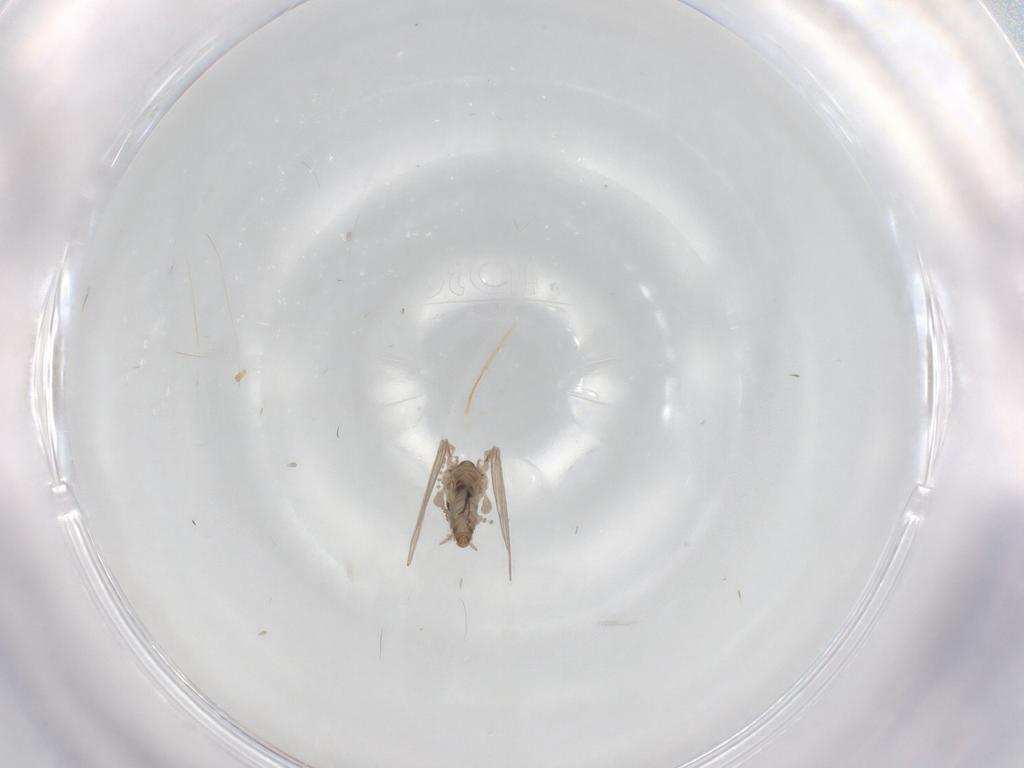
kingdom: Animalia
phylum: Arthropoda
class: Insecta
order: Diptera
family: Psychodidae
